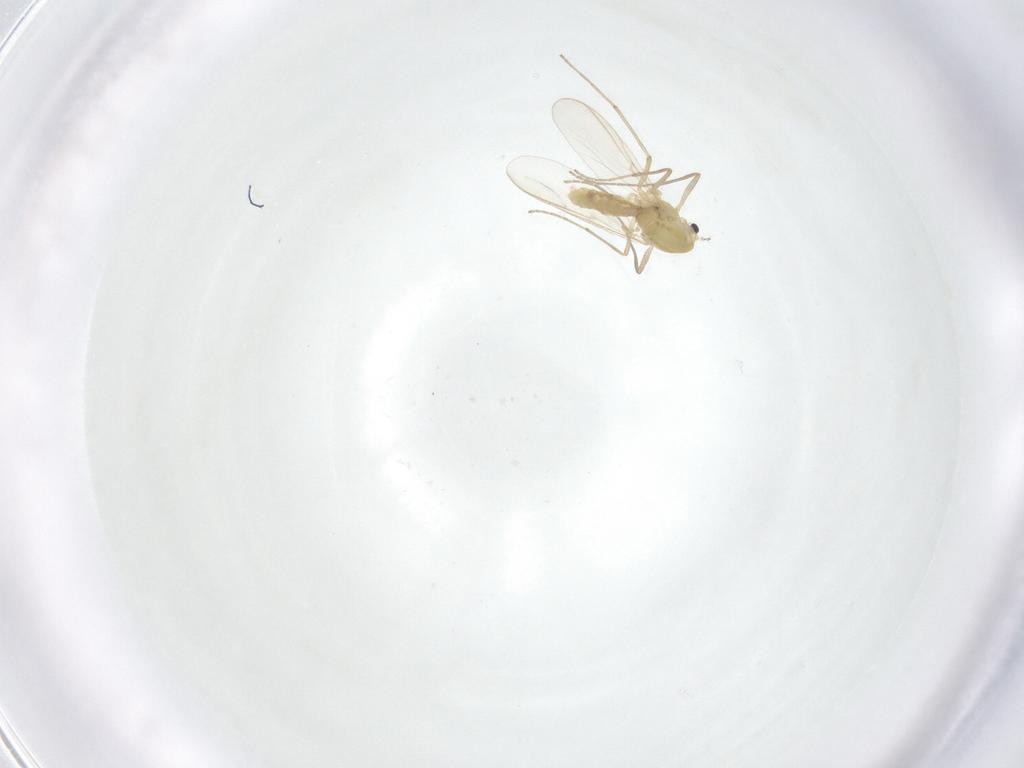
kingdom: Animalia
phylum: Arthropoda
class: Insecta
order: Diptera
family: Chironomidae
